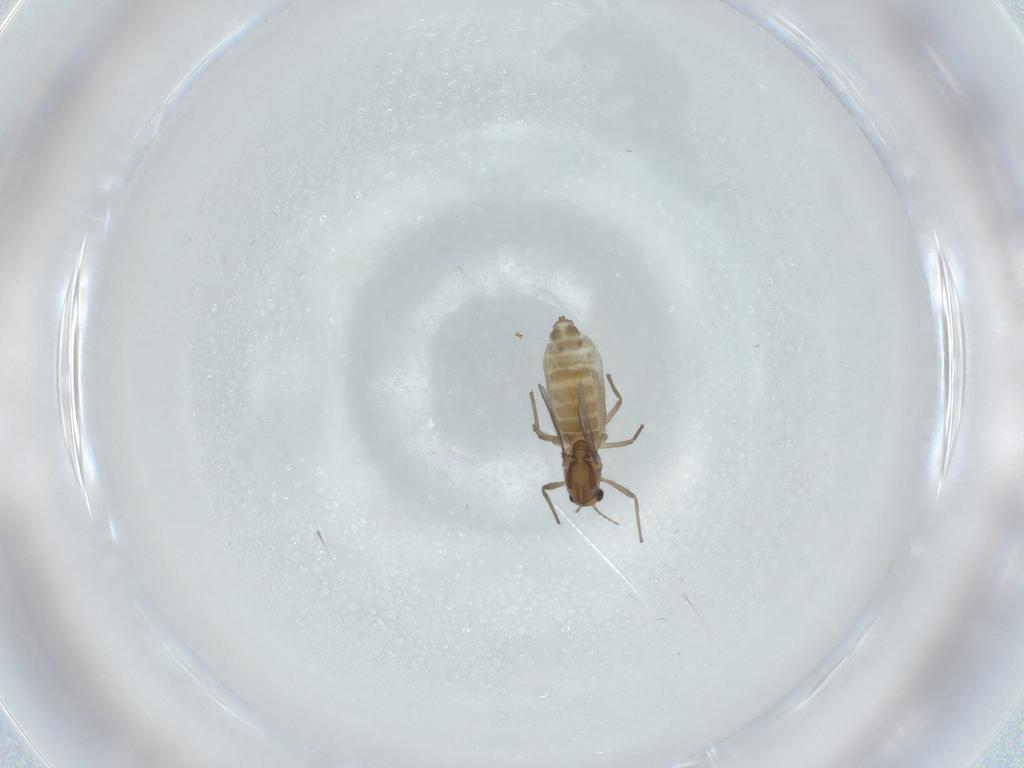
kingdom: Animalia
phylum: Arthropoda
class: Insecta
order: Diptera
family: Chironomidae
